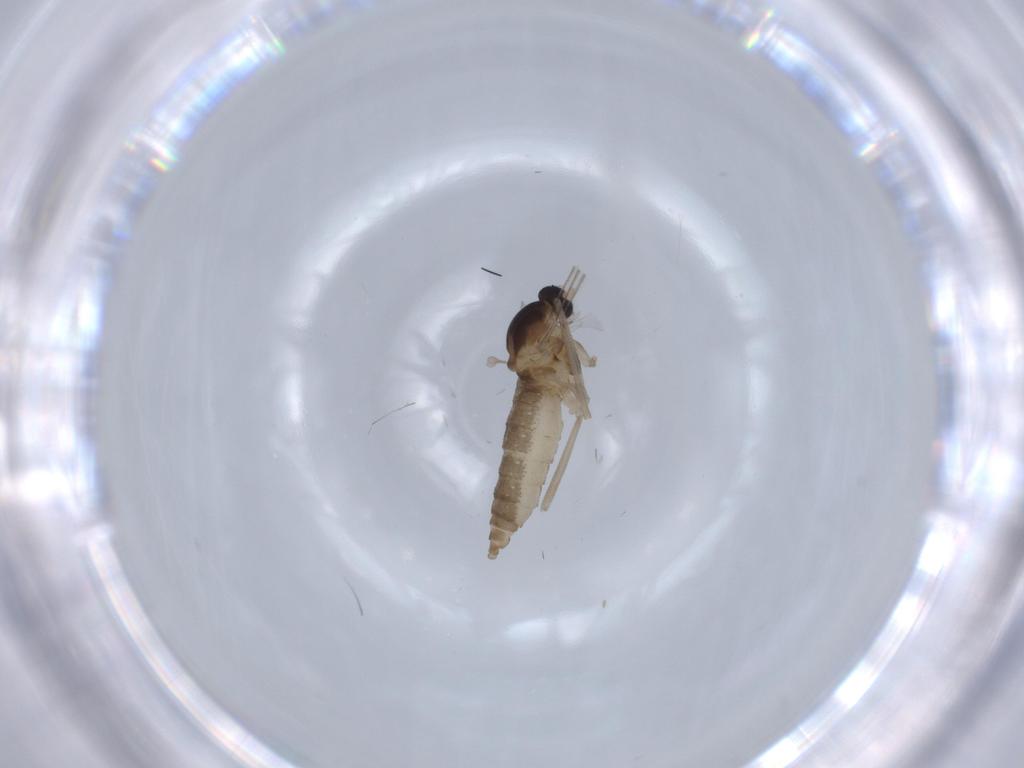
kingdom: Animalia
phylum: Arthropoda
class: Insecta
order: Diptera
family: Cecidomyiidae
